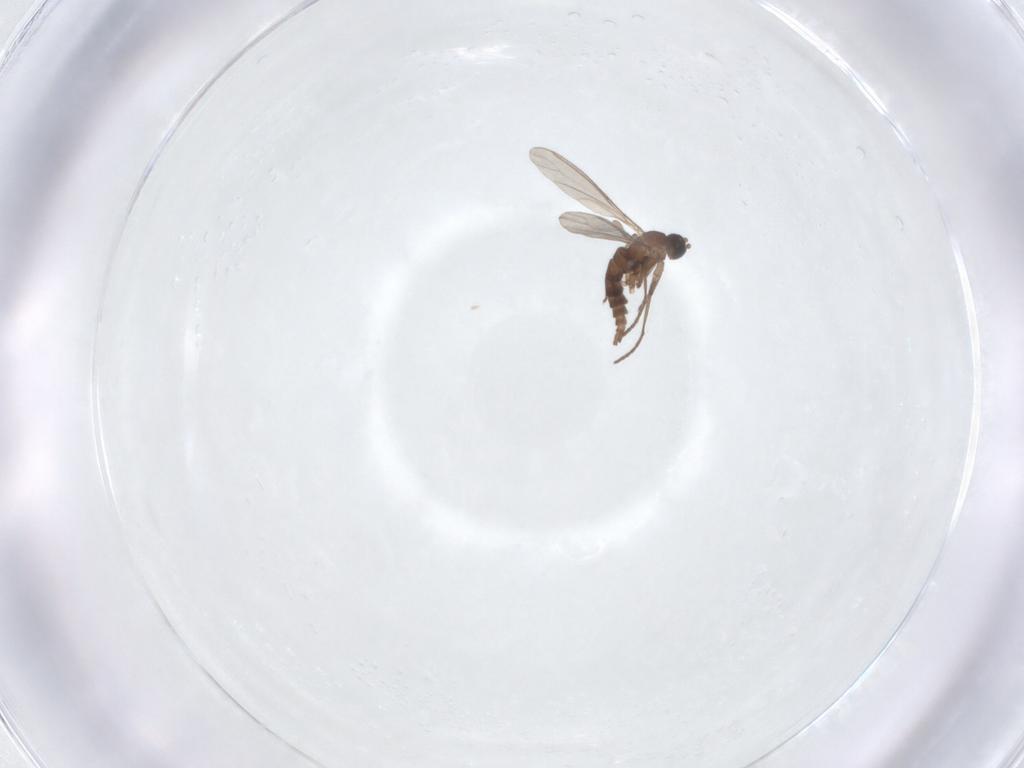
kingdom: Animalia
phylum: Arthropoda
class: Insecta
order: Diptera
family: Sciaridae
